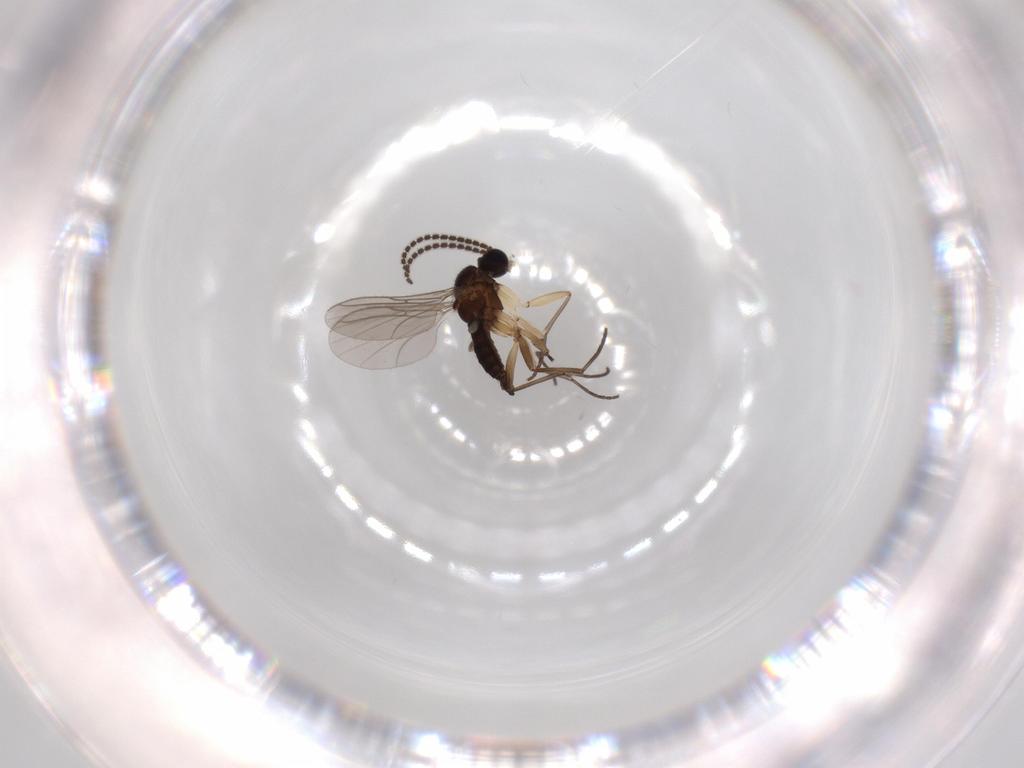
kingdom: Animalia
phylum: Arthropoda
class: Insecta
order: Diptera
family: Sciaridae
